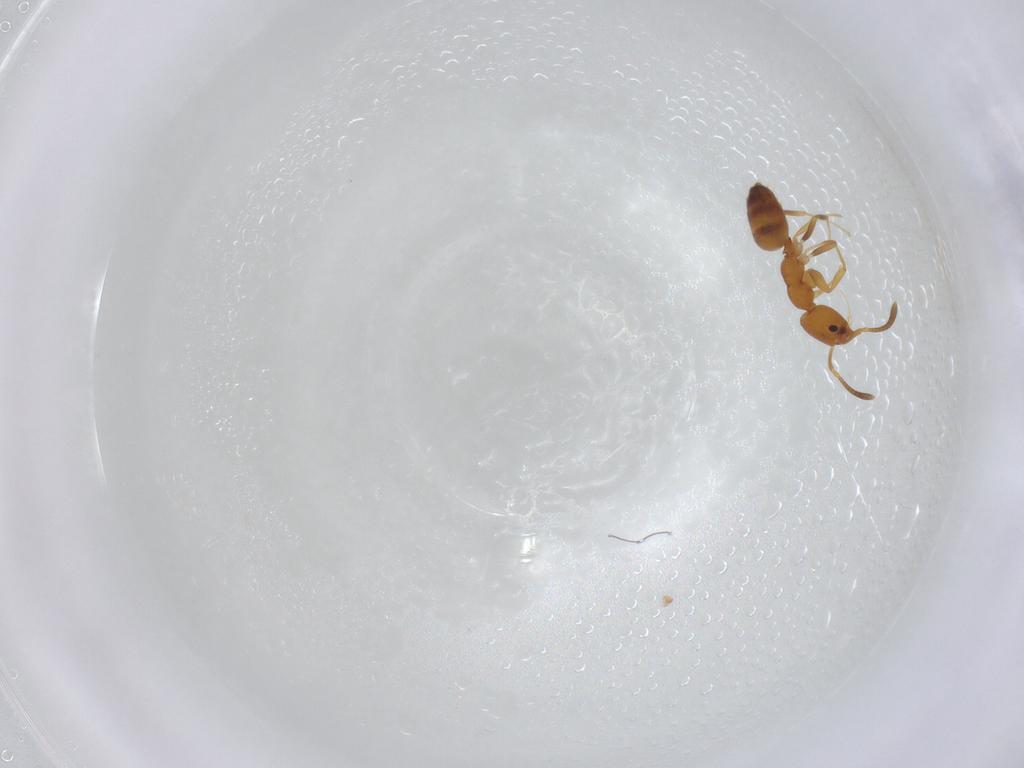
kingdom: Animalia
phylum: Arthropoda
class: Insecta
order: Hymenoptera
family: Formicidae
